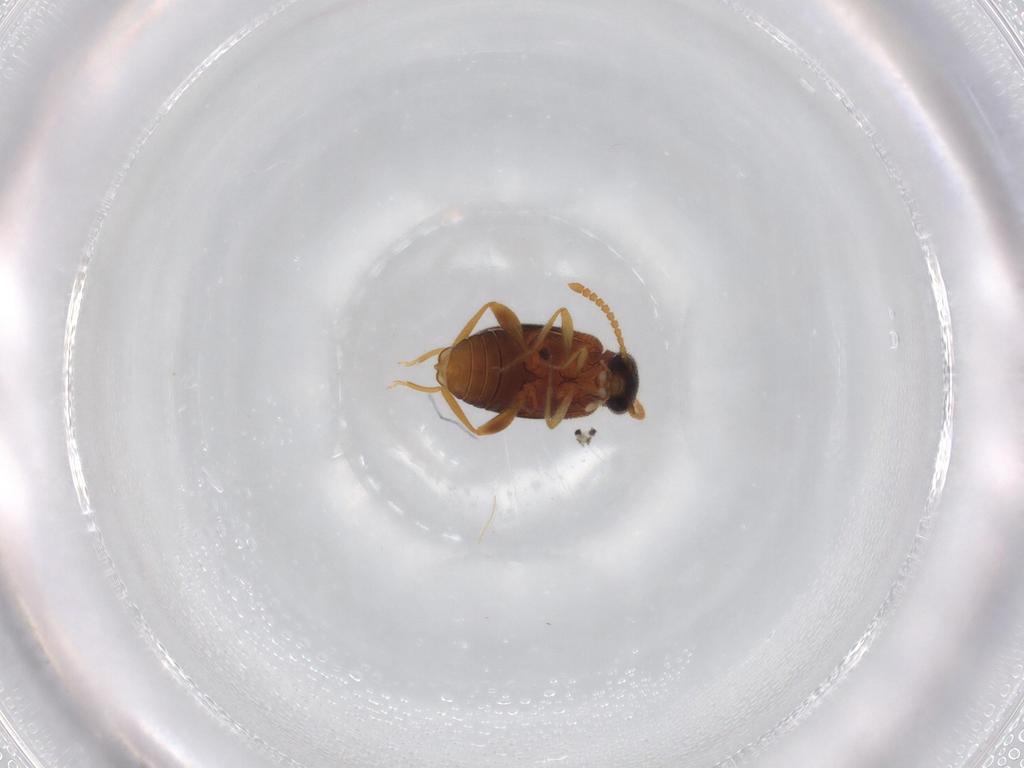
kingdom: Animalia
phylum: Arthropoda
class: Insecta
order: Coleoptera
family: Aderidae
